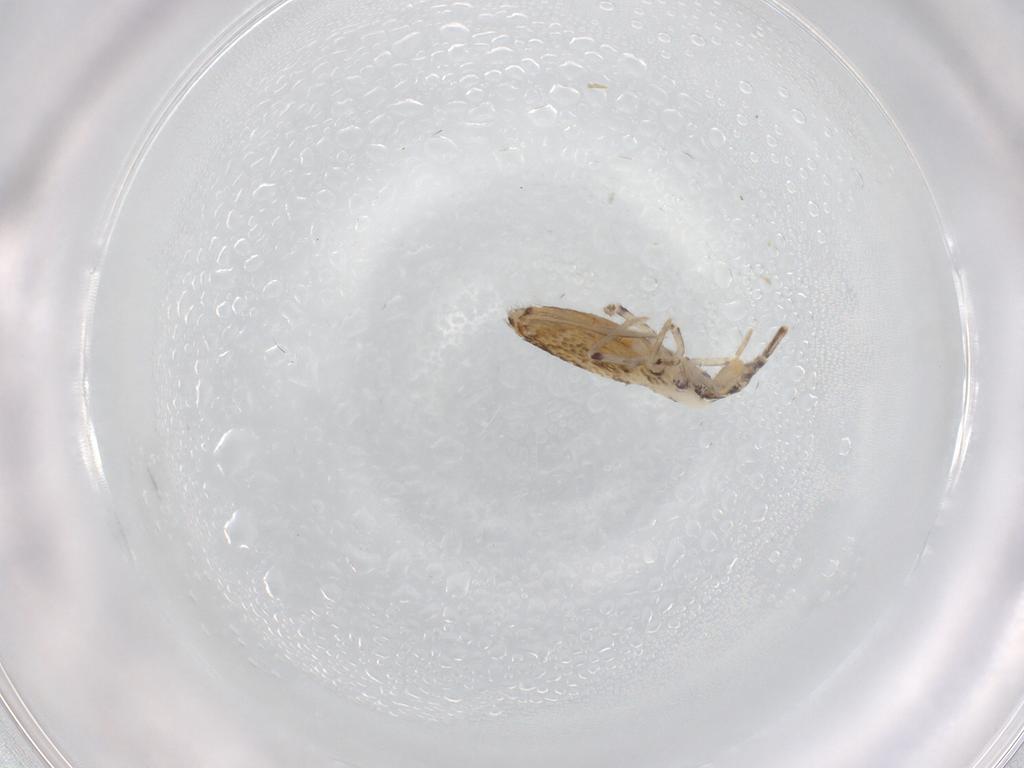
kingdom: Animalia
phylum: Arthropoda
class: Collembola
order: Entomobryomorpha
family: Entomobryidae
